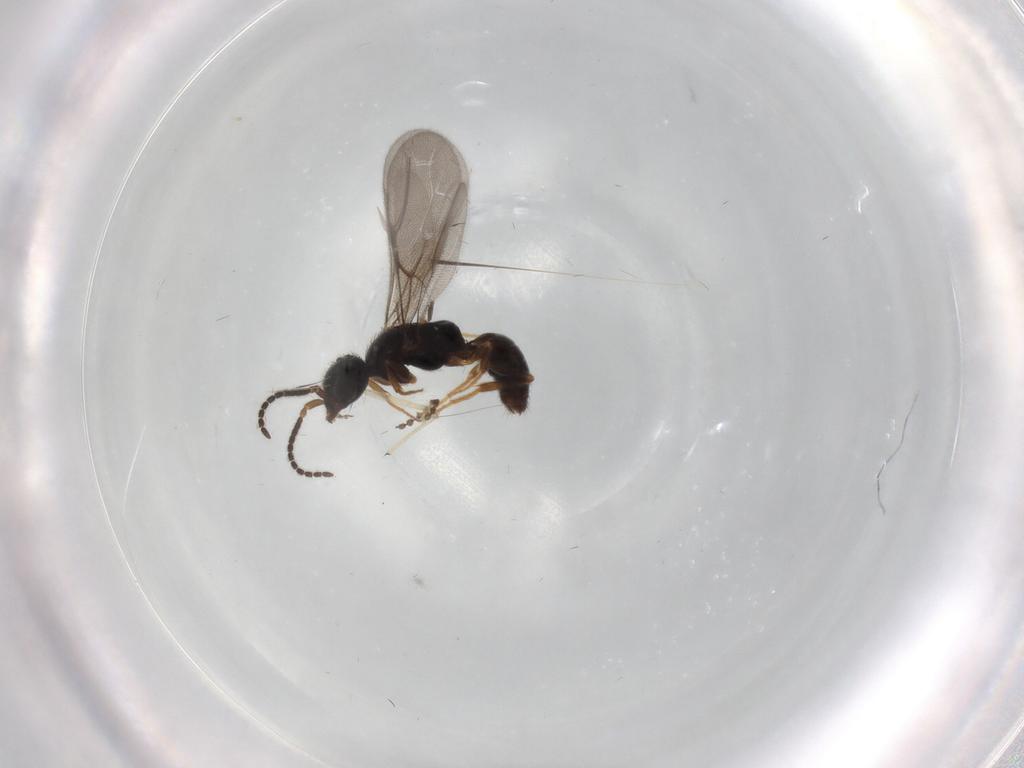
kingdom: Animalia
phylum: Arthropoda
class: Insecta
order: Hymenoptera
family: Bethylidae
